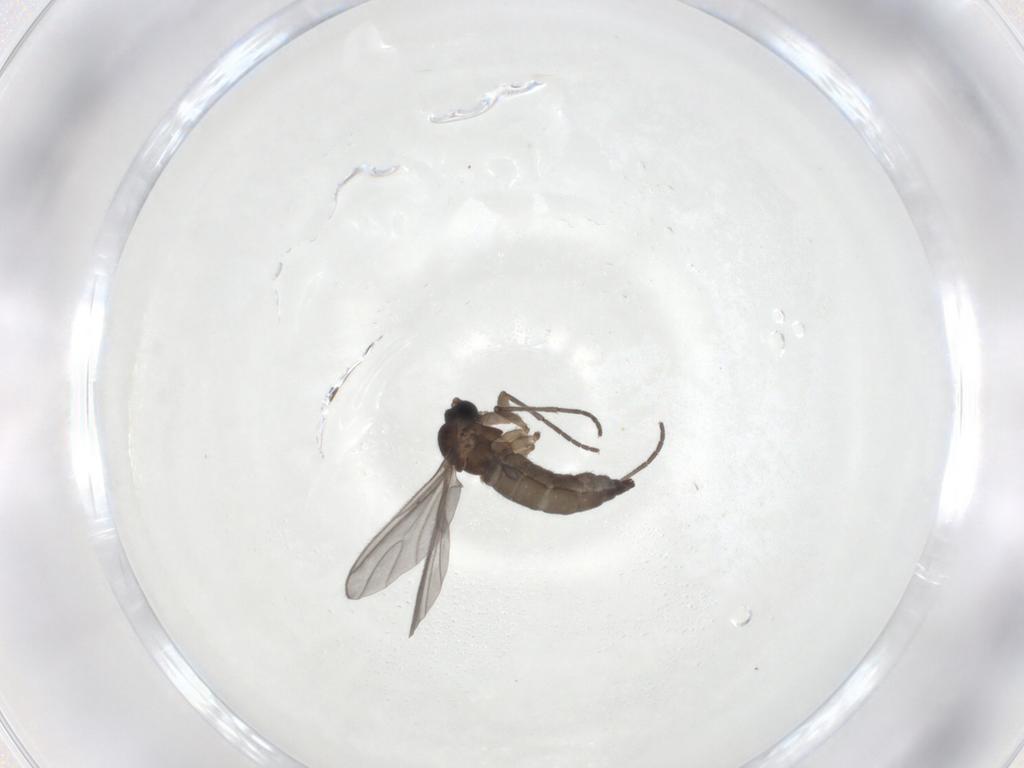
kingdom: Animalia
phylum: Arthropoda
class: Insecta
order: Diptera
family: Sciaridae
